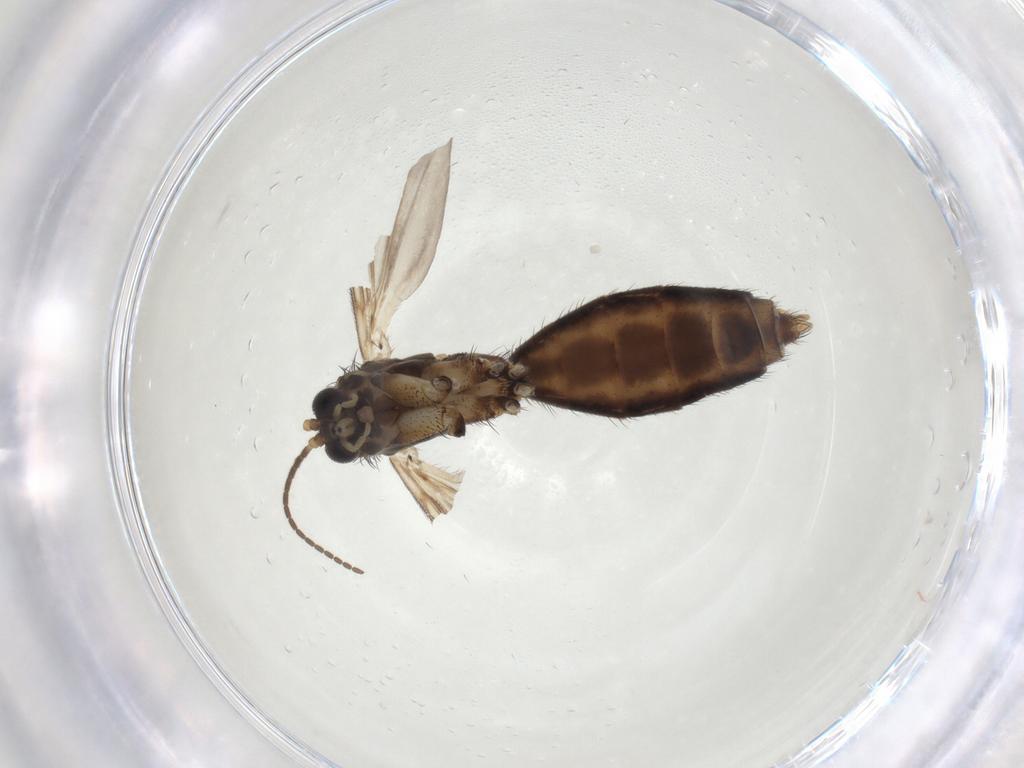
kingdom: Animalia
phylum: Arthropoda
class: Insecta
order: Diptera
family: Mycetophilidae
